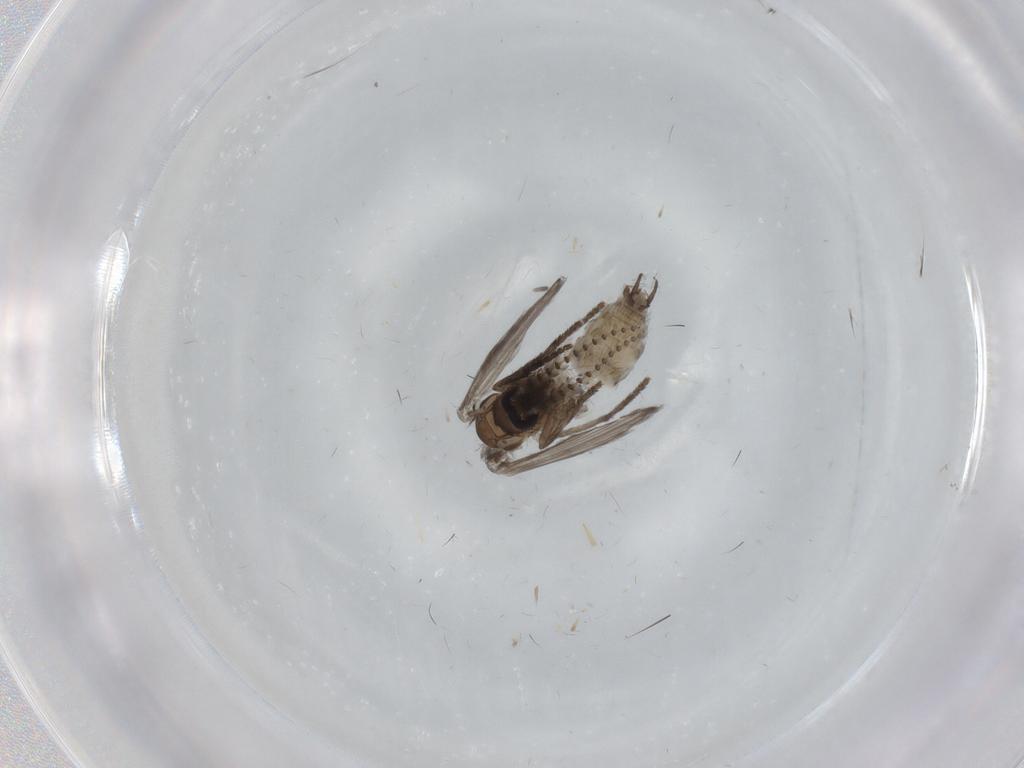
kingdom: Animalia
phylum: Arthropoda
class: Insecta
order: Diptera
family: Psychodidae
